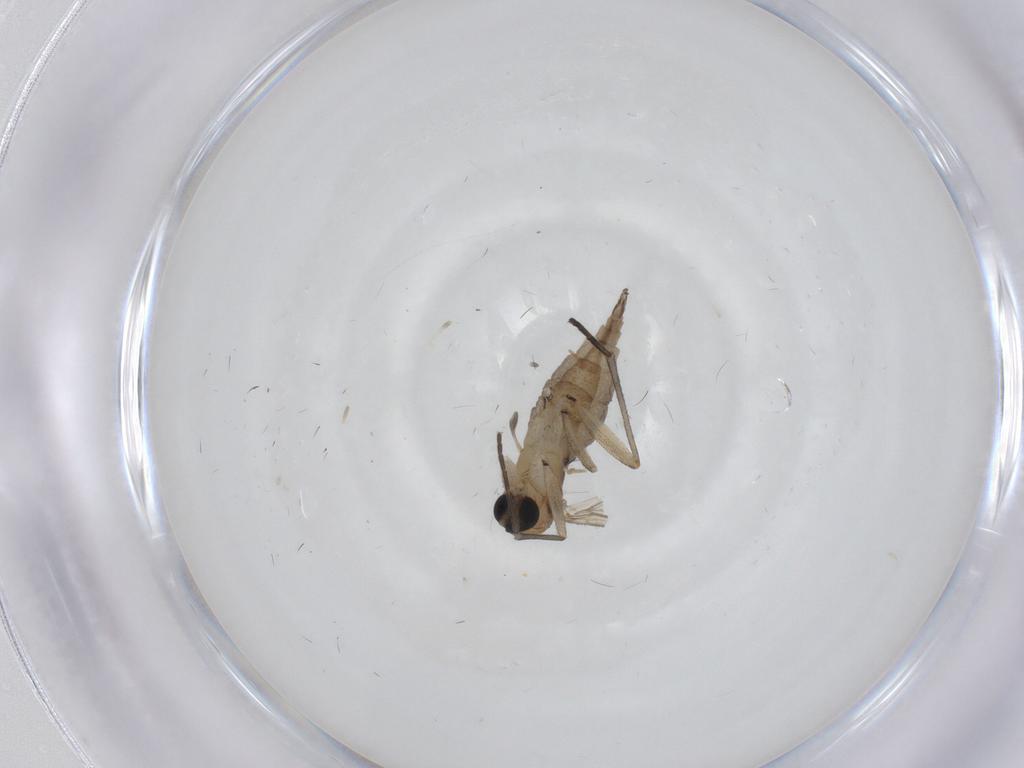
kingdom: Animalia
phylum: Arthropoda
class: Insecta
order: Diptera
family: Sciaridae
